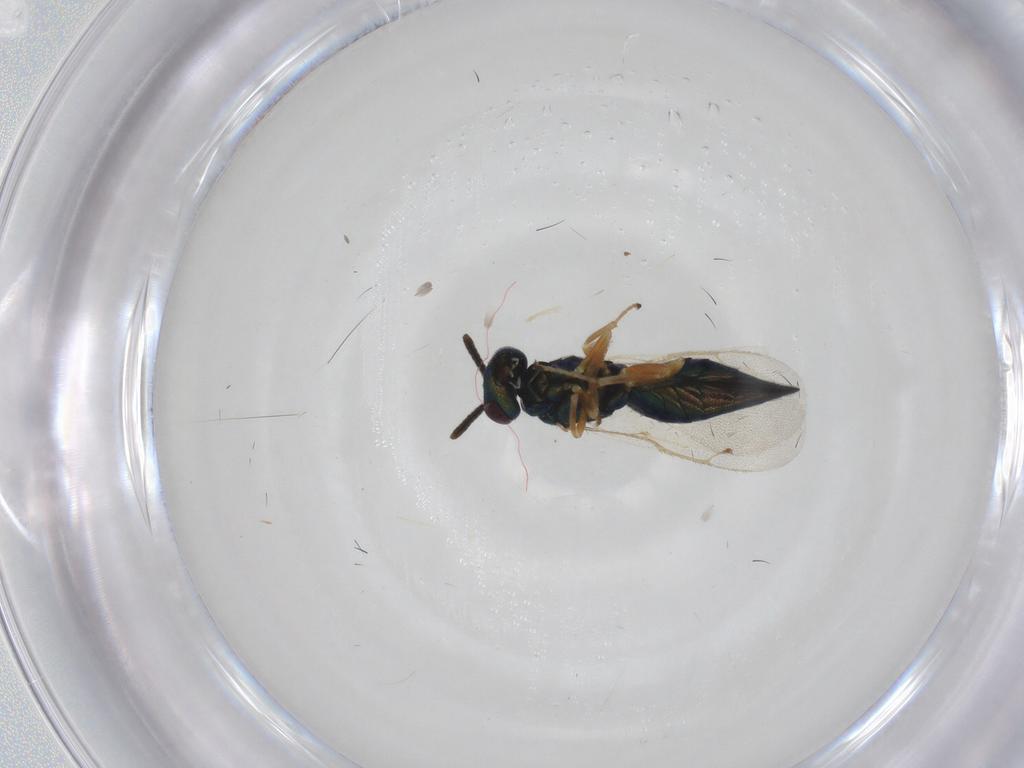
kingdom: Animalia
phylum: Arthropoda
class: Insecta
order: Hymenoptera
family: Pteromalidae
